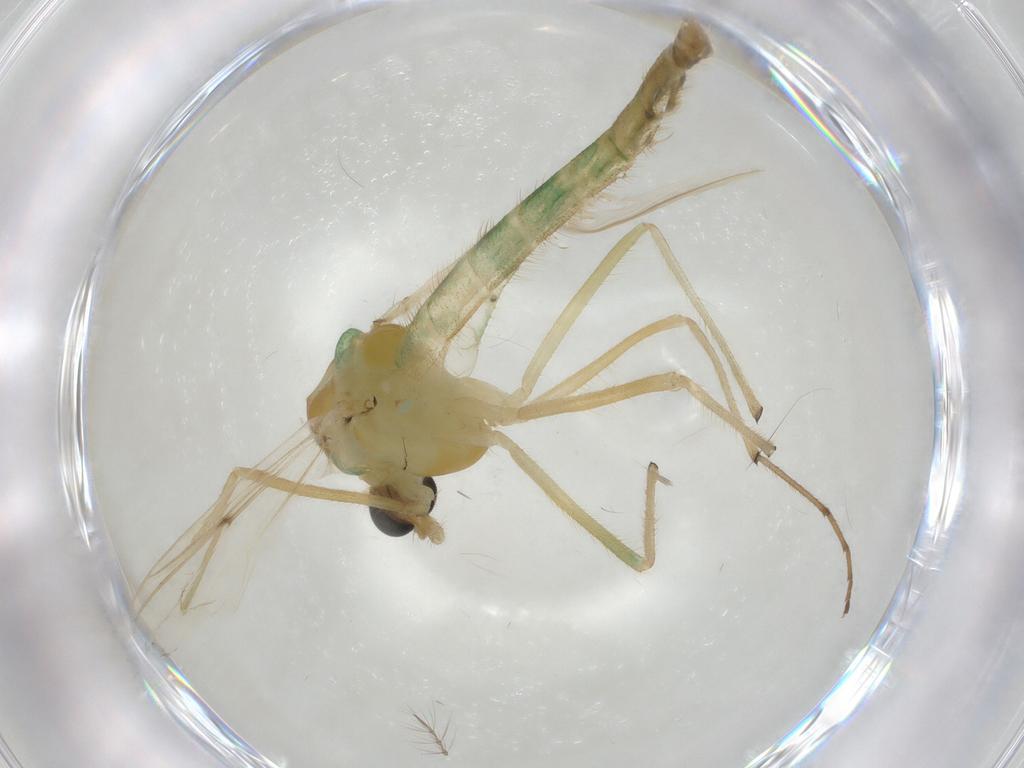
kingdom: Animalia
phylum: Arthropoda
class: Insecta
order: Diptera
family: Chironomidae
